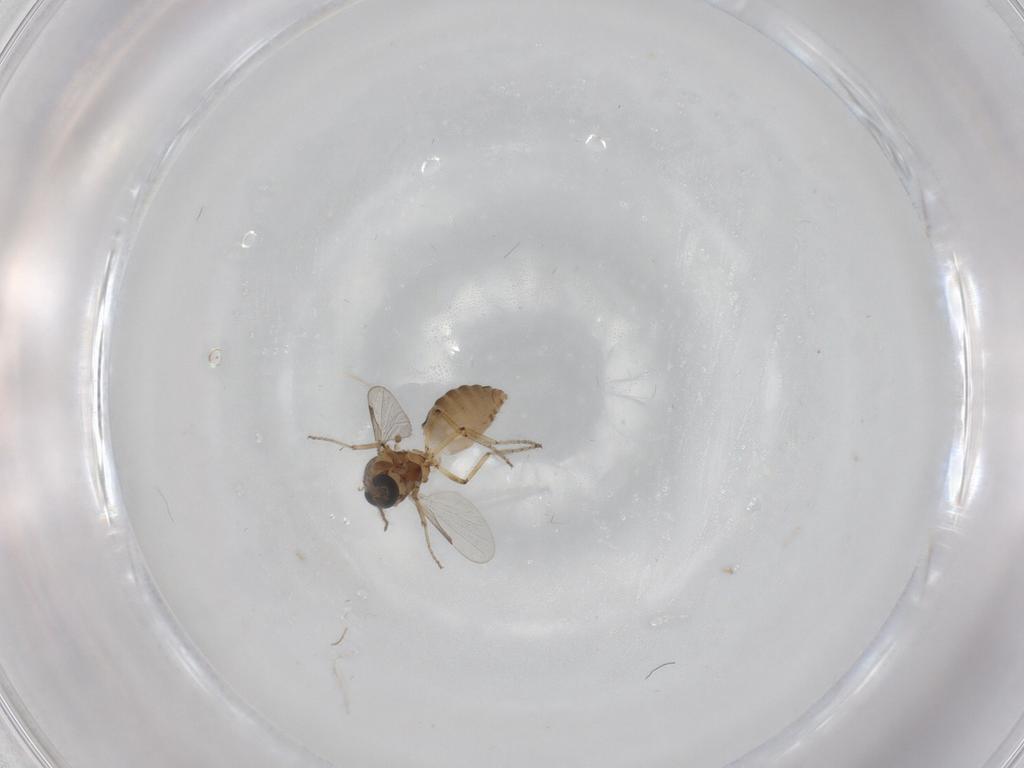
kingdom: Animalia
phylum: Arthropoda
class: Insecta
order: Diptera
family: Ceratopogonidae
